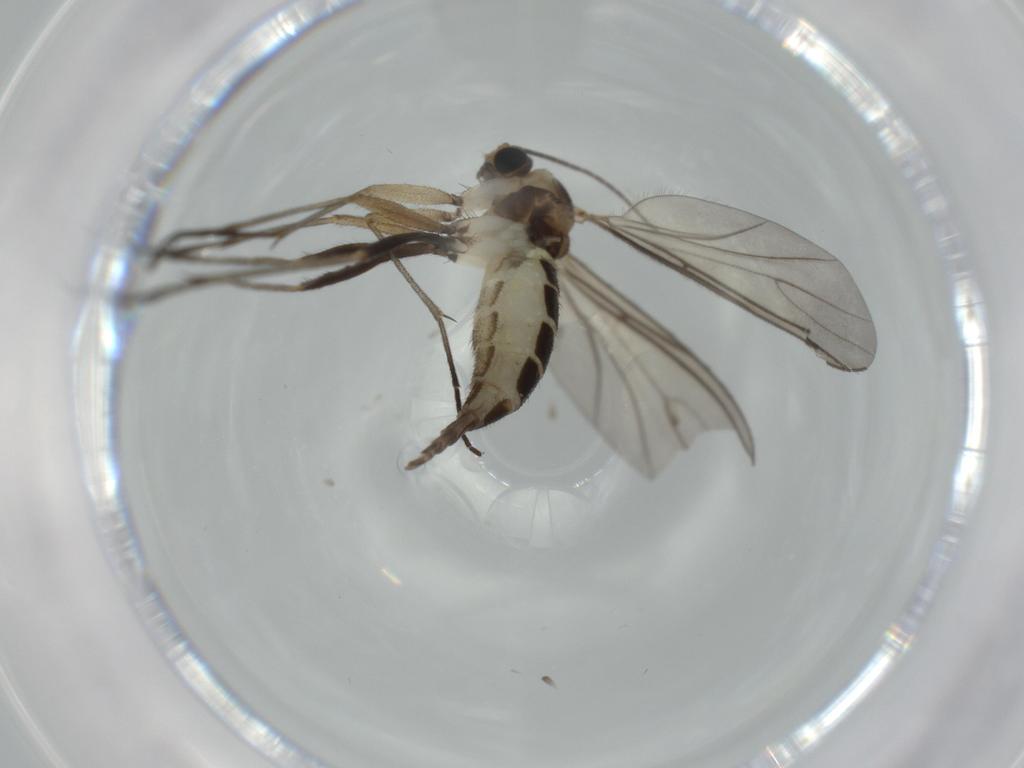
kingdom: Animalia
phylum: Arthropoda
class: Insecta
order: Diptera
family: Sciaridae
